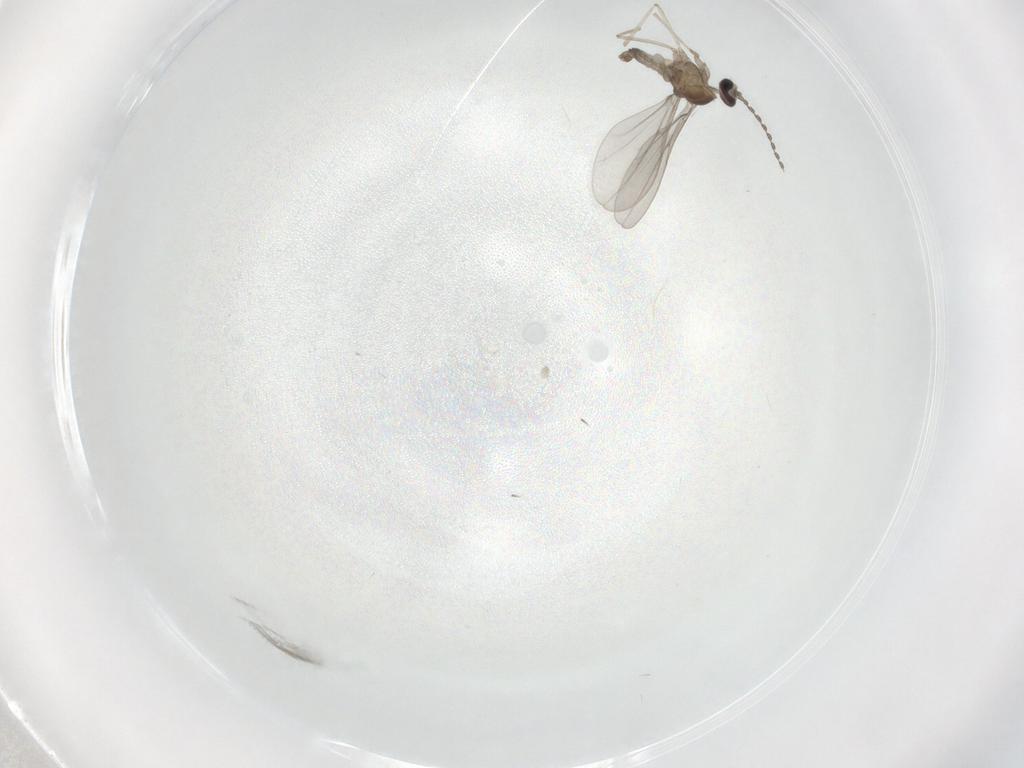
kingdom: Animalia
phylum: Arthropoda
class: Insecta
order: Diptera
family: Cecidomyiidae
